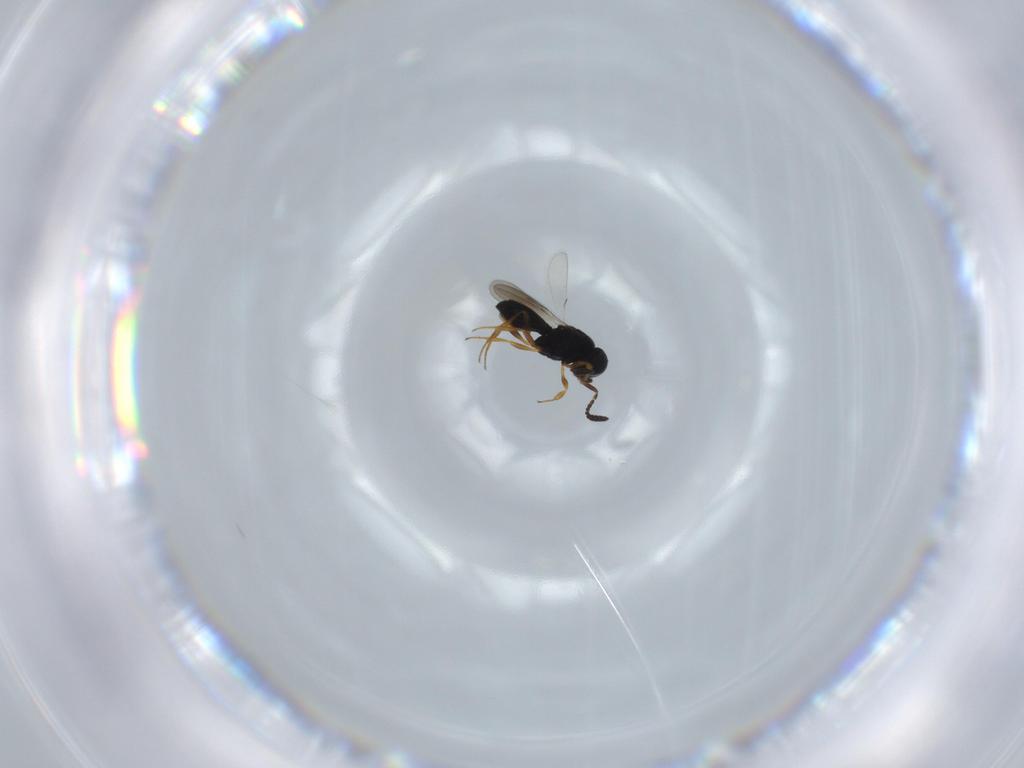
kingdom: Animalia
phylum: Arthropoda
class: Insecta
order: Hymenoptera
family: Scelionidae
